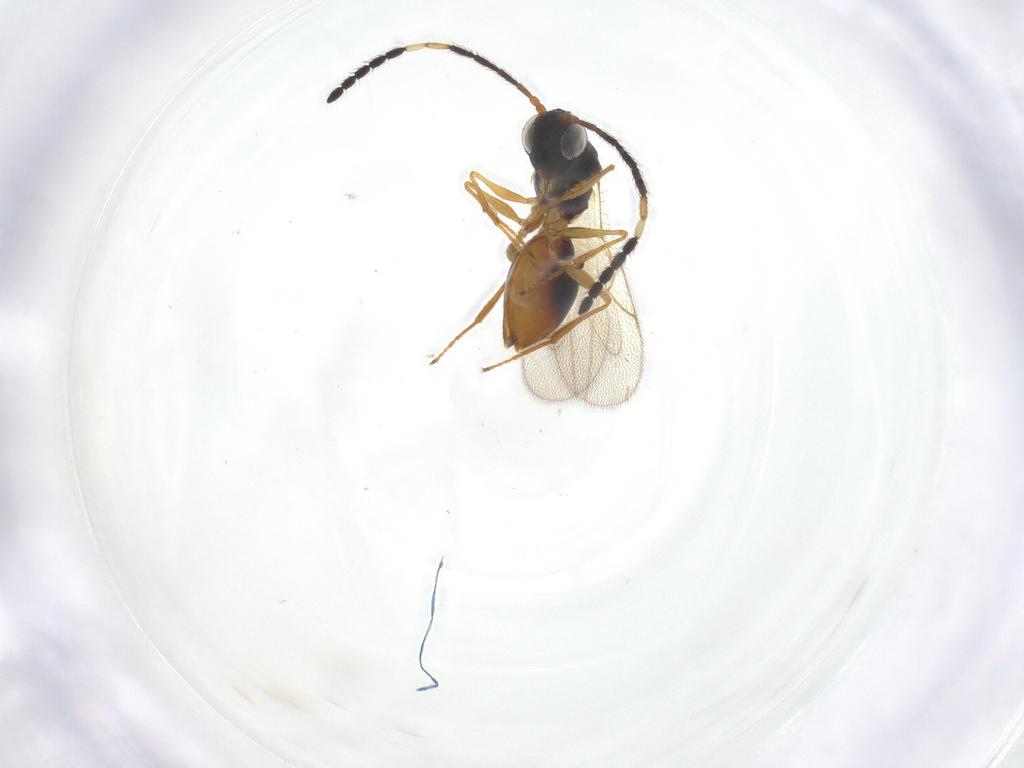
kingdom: Animalia
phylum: Arthropoda
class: Insecta
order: Hymenoptera
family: Figitidae
